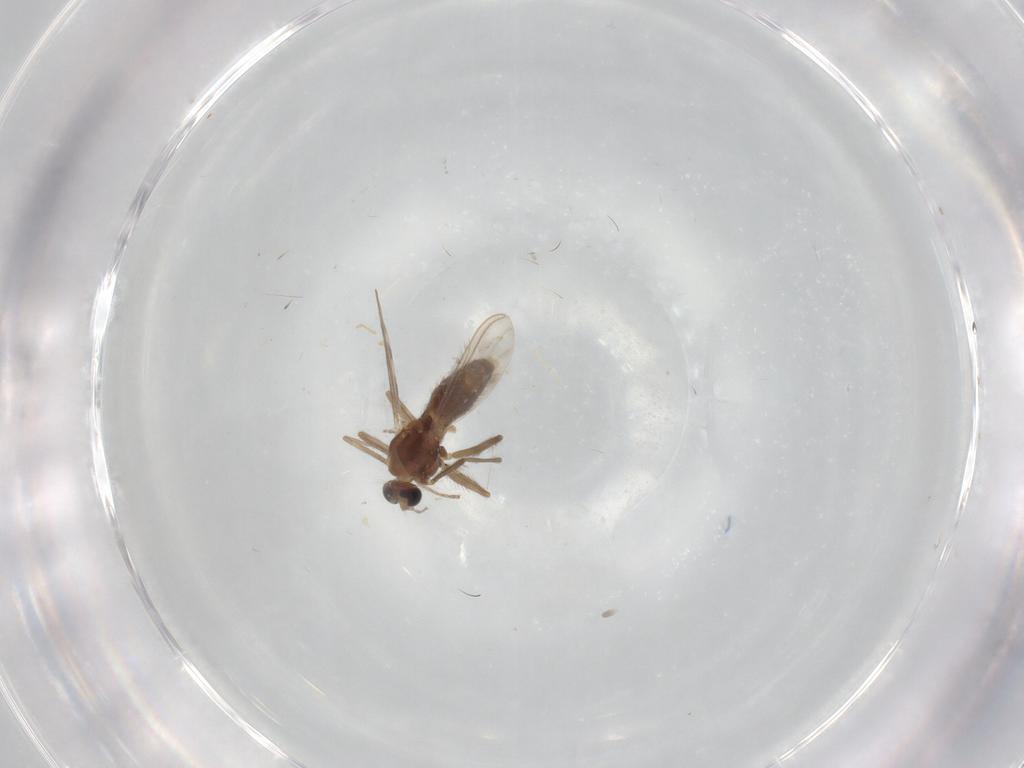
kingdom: Animalia
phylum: Arthropoda
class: Insecta
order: Diptera
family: Chironomidae
